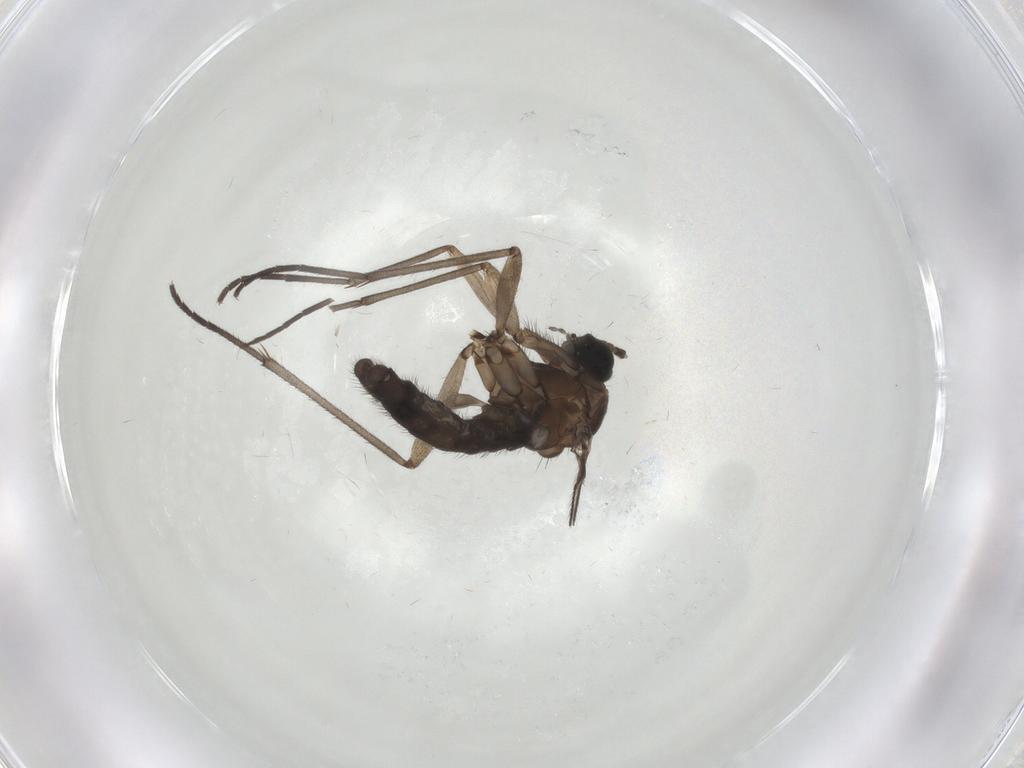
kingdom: Animalia
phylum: Arthropoda
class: Insecta
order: Diptera
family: Sciaridae
